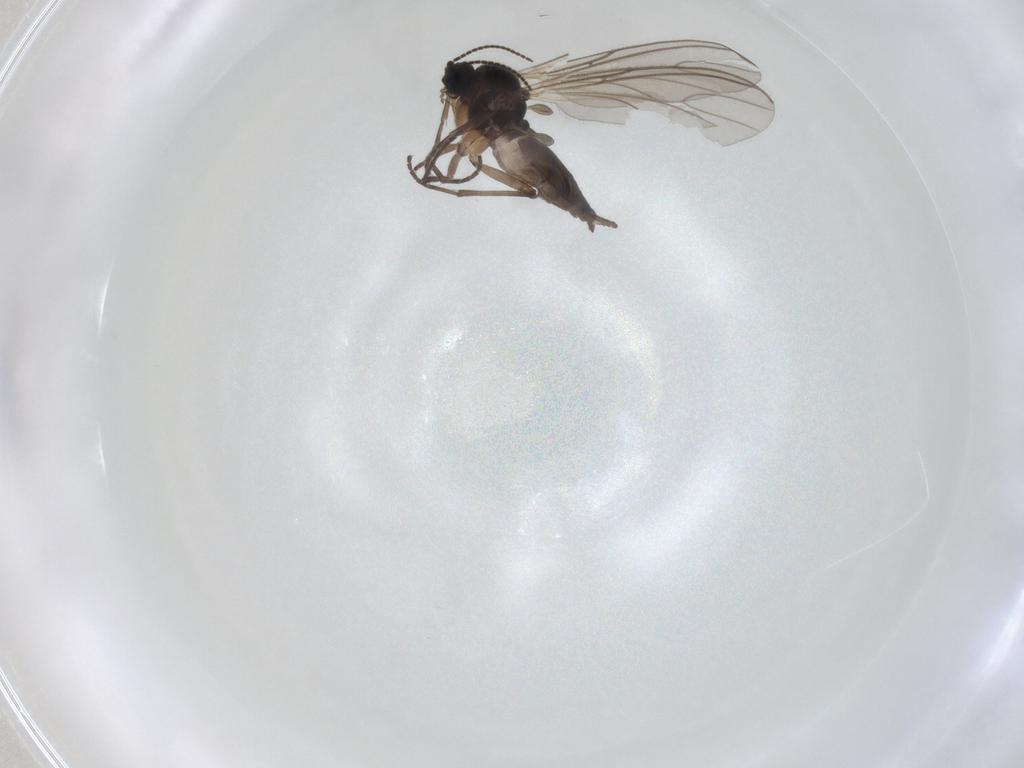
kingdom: Animalia
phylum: Arthropoda
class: Insecta
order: Diptera
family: Sciaridae
